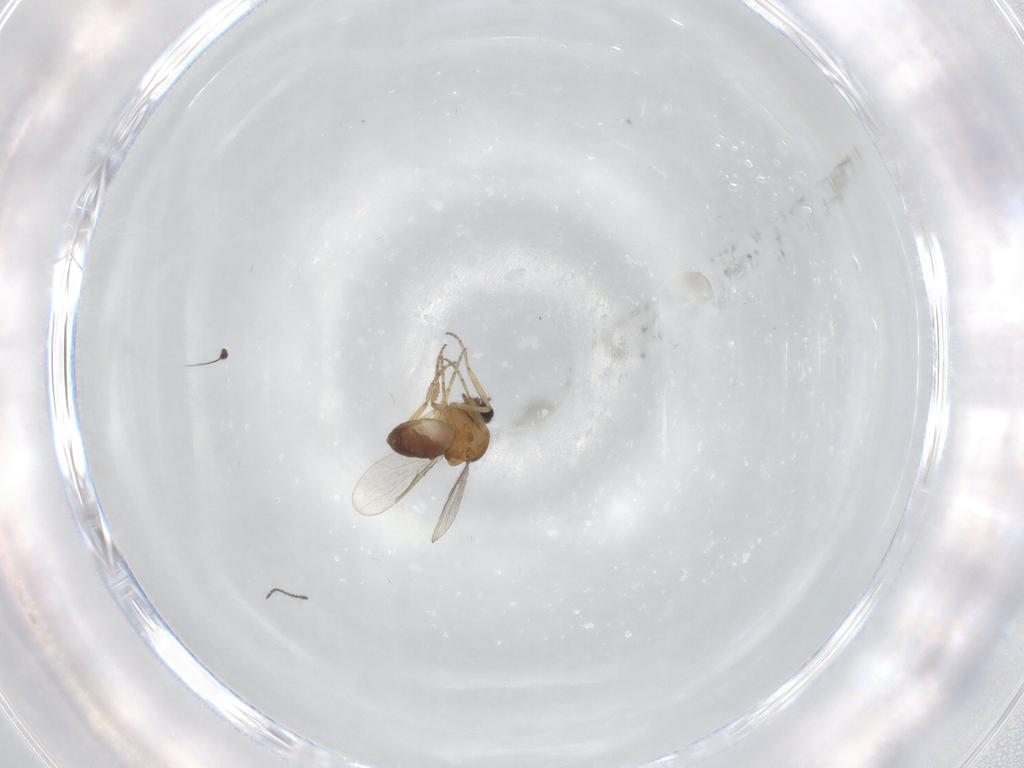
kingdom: Animalia
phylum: Arthropoda
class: Insecta
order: Diptera
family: Ceratopogonidae
